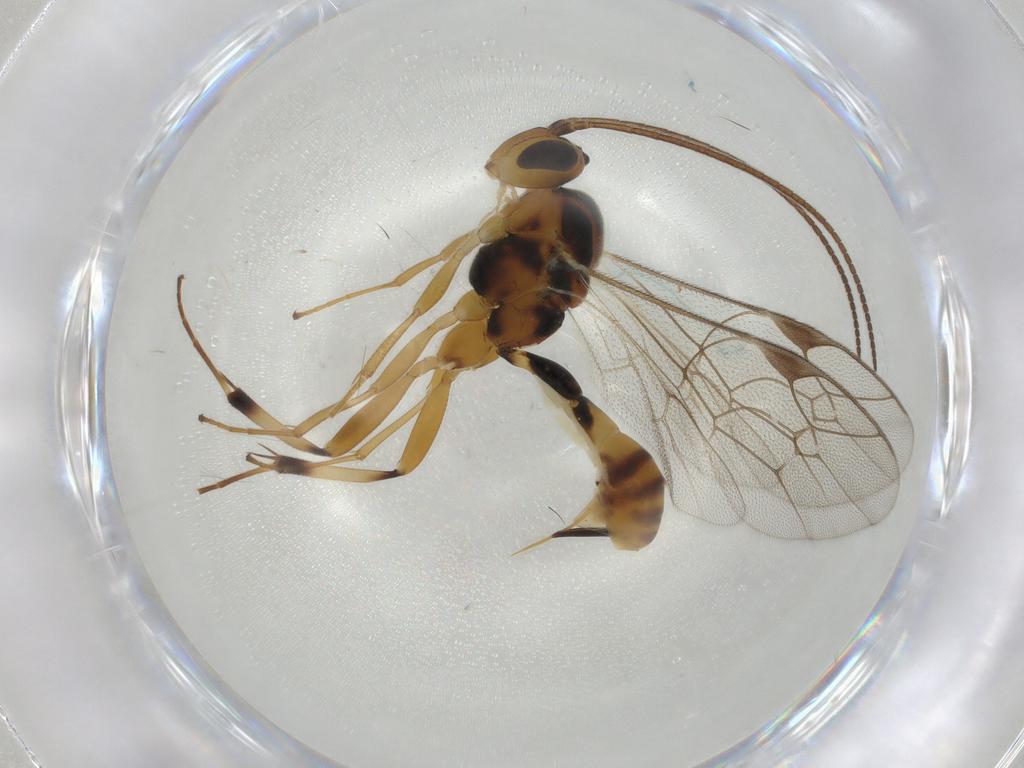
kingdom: Animalia
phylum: Arthropoda
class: Insecta
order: Hymenoptera
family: Ichneumonidae
